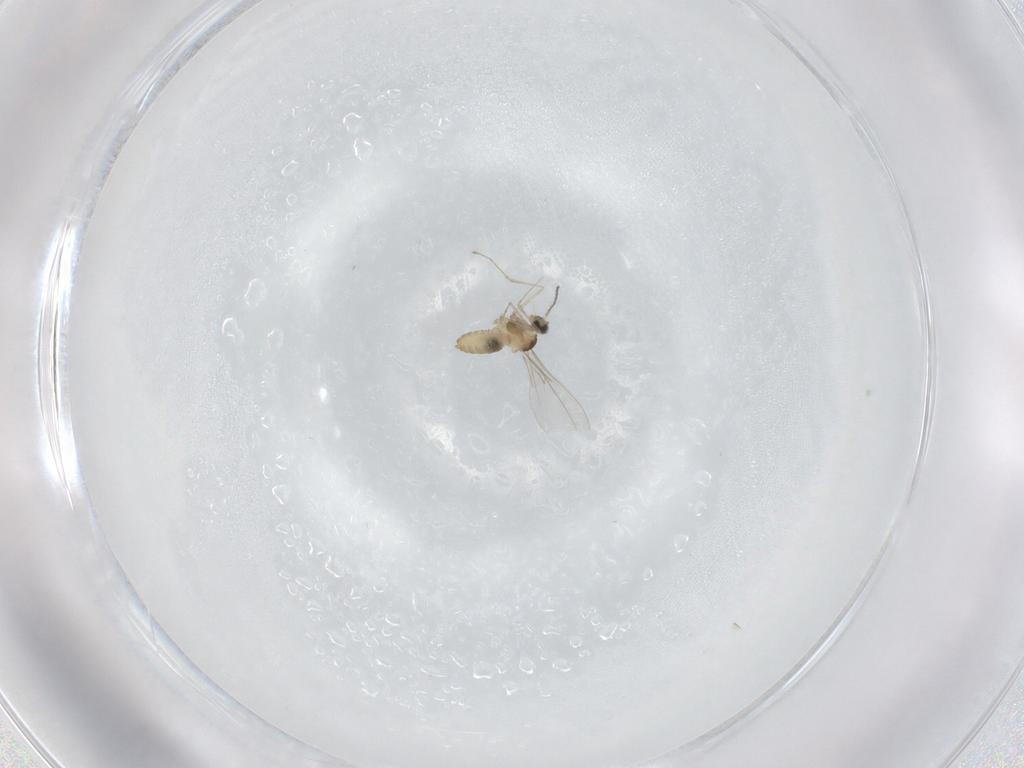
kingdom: Animalia
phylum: Arthropoda
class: Insecta
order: Diptera
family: Cecidomyiidae
